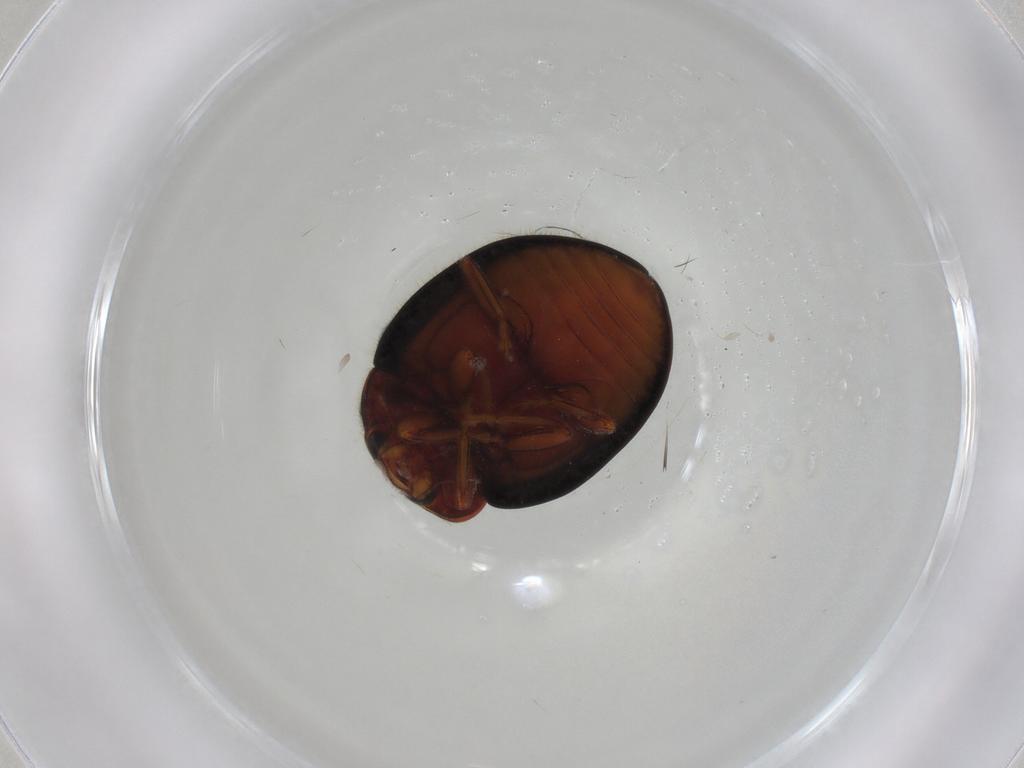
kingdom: Animalia
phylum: Arthropoda
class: Insecta
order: Coleoptera
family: Coccinellidae
